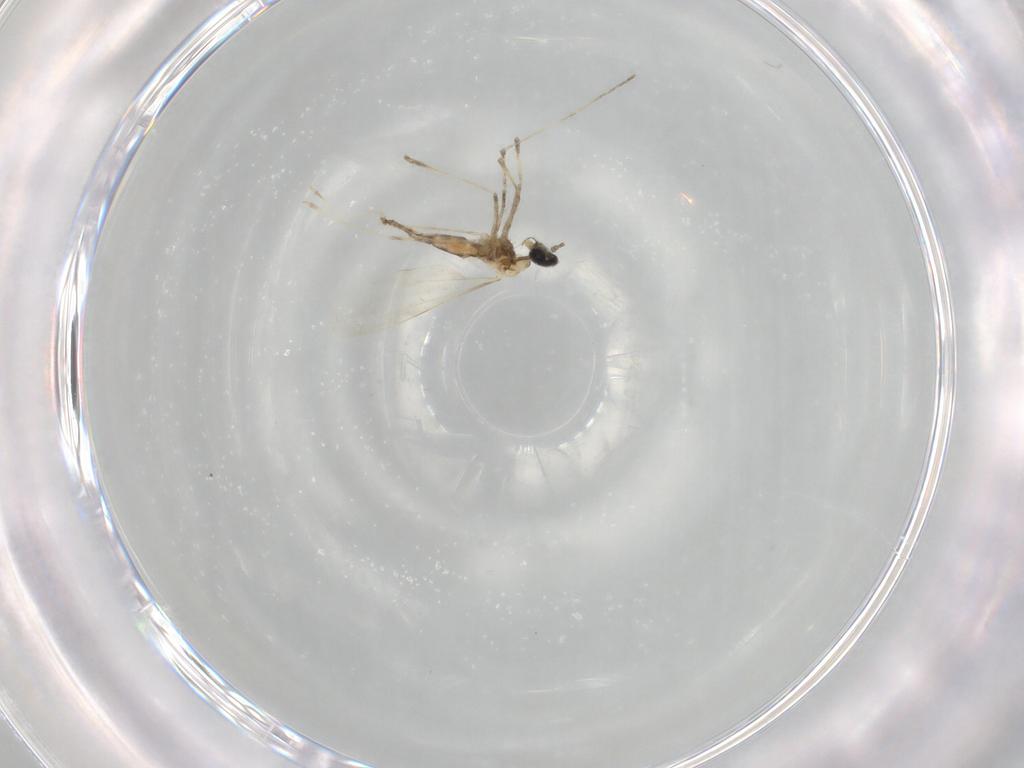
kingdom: Animalia
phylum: Arthropoda
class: Insecta
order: Diptera
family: Cecidomyiidae
